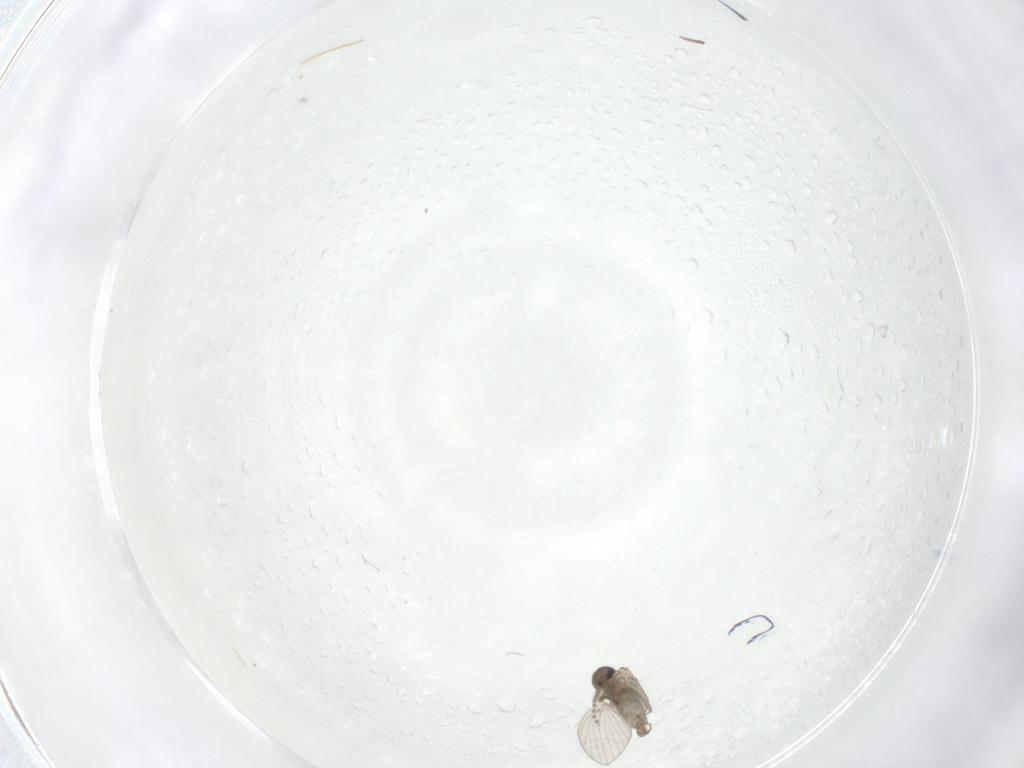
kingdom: Animalia
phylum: Arthropoda
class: Insecta
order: Diptera
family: Psychodidae
